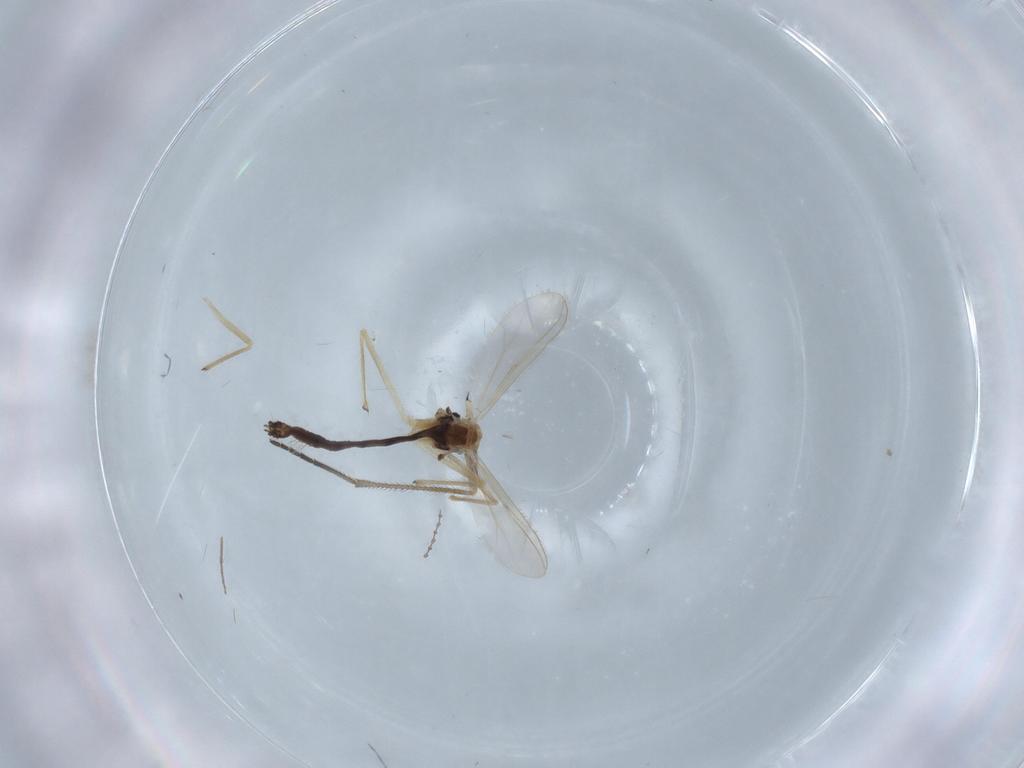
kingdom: Animalia
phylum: Arthropoda
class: Insecta
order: Diptera
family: Chironomidae
